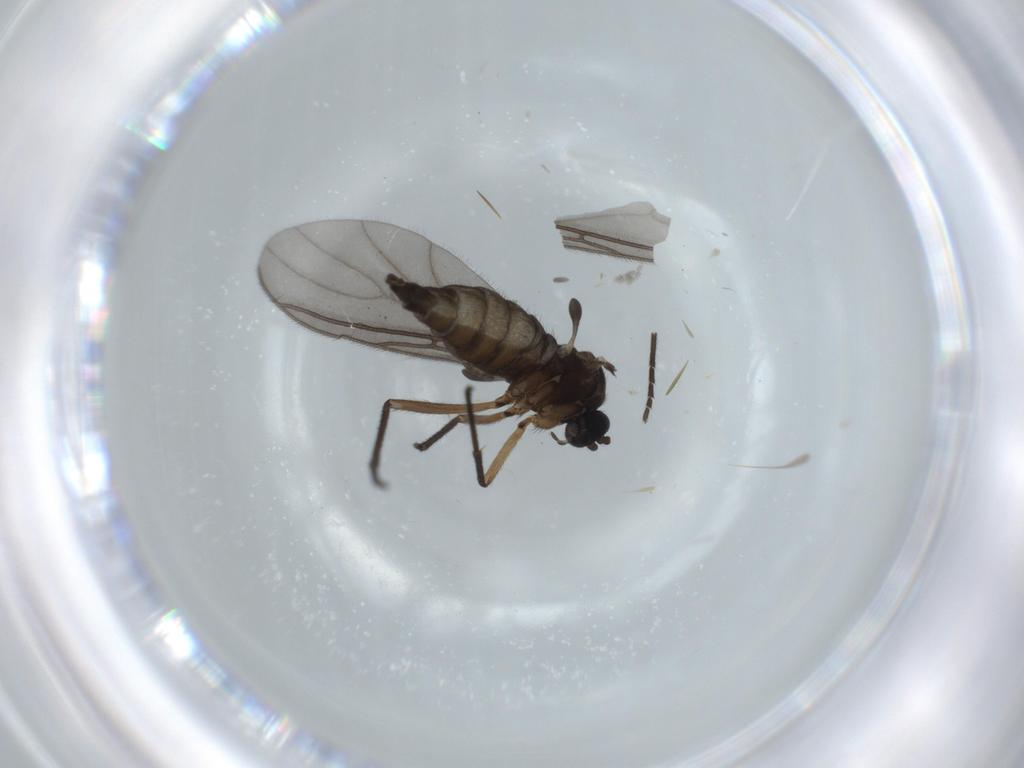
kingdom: Animalia
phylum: Arthropoda
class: Insecta
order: Diptera
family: Sciaridae
